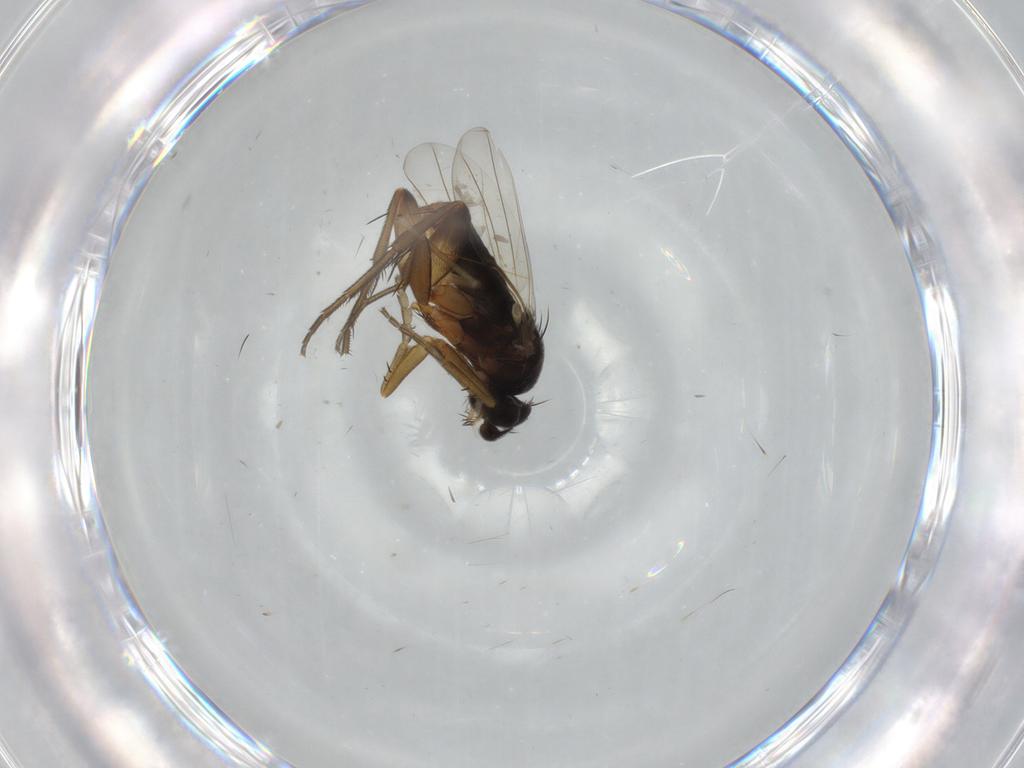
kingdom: Animalia
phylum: Arthropoda
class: Insecta
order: Diptera
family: Phoridae
